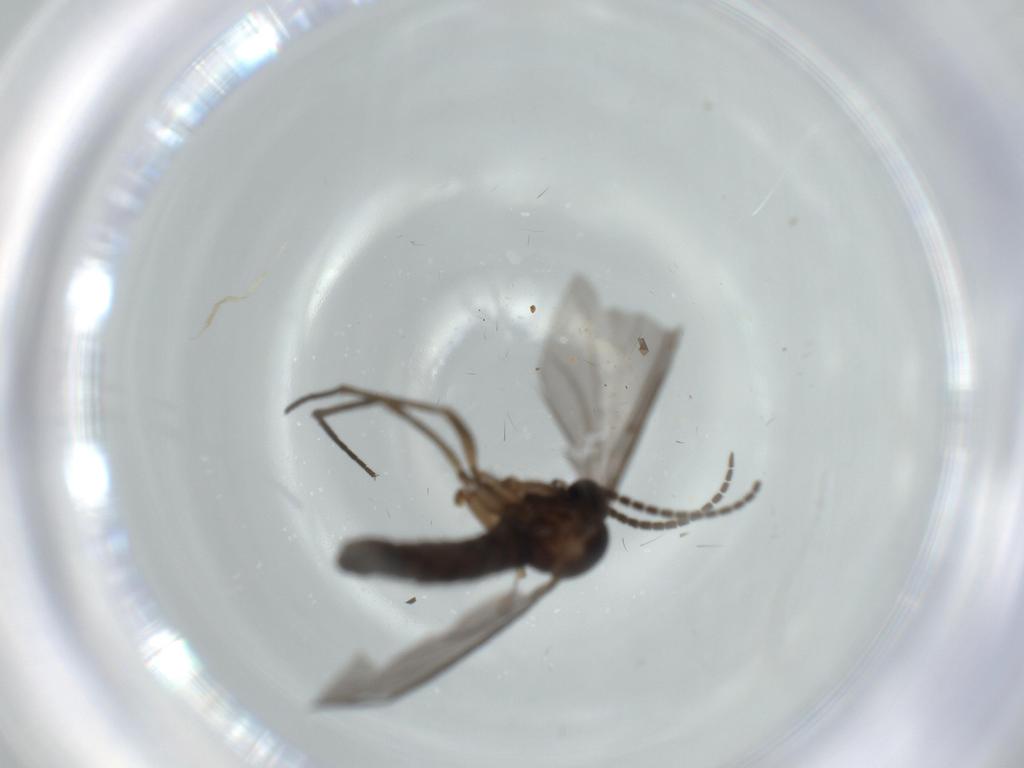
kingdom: Animalia
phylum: Arthropoda
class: Insecta
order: Diptera
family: Sciaridae
